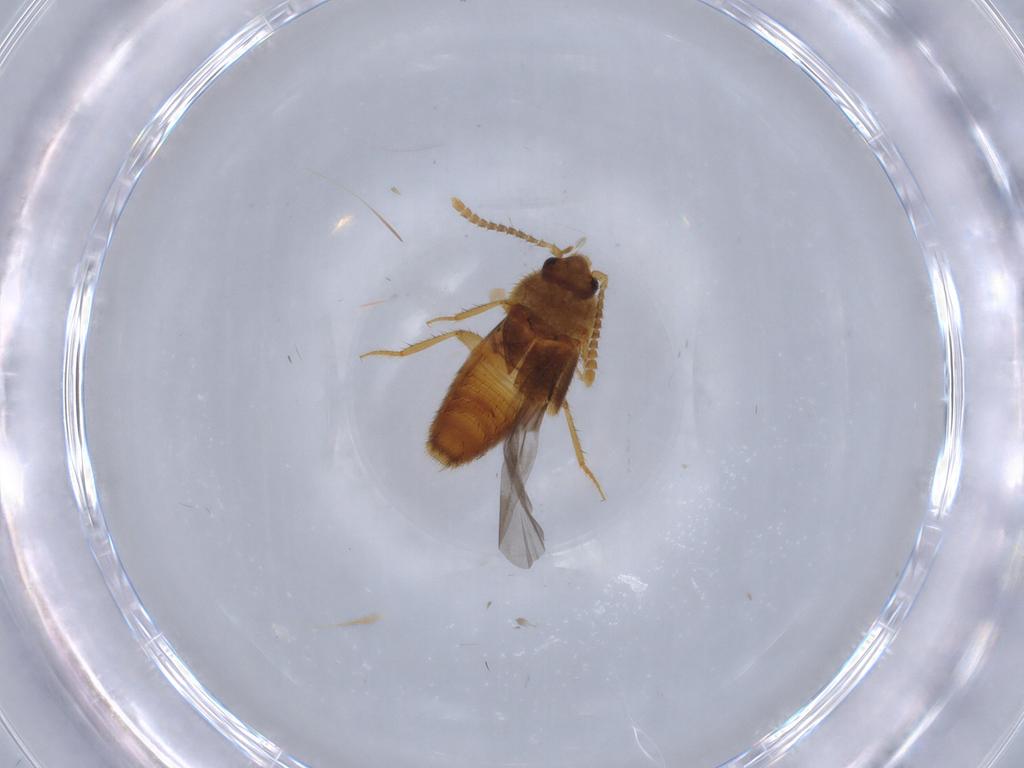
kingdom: Animalia
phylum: Arthropoda
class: Insecta
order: Coleoptera
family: Staphylinidae
